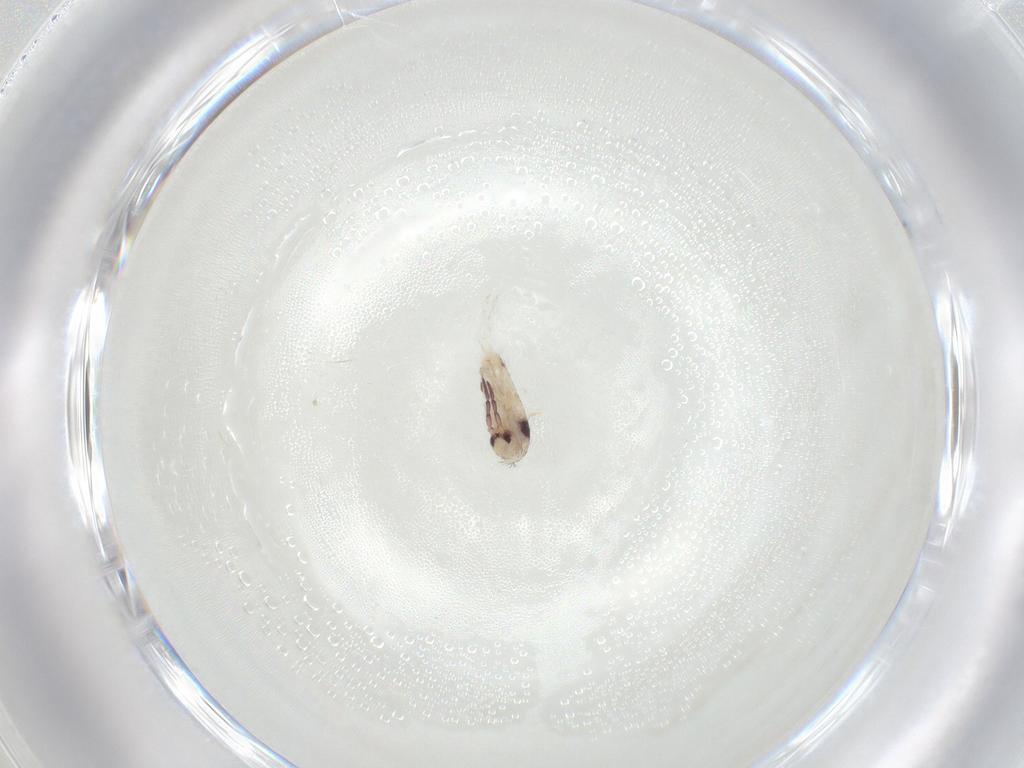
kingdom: Animalia
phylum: Arthropoda
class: Collembola
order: Entomobryomorpha
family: Entomobryidae
